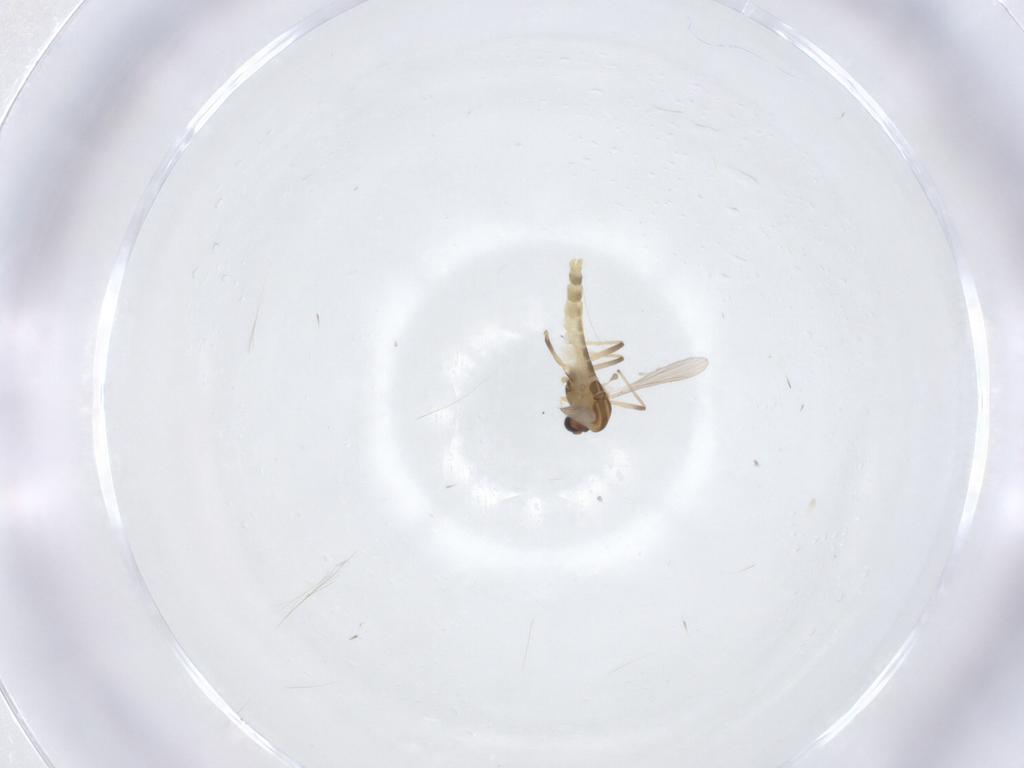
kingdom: Animalia
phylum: Arthropoda
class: Insecta
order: Diptera
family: Chironomidae
